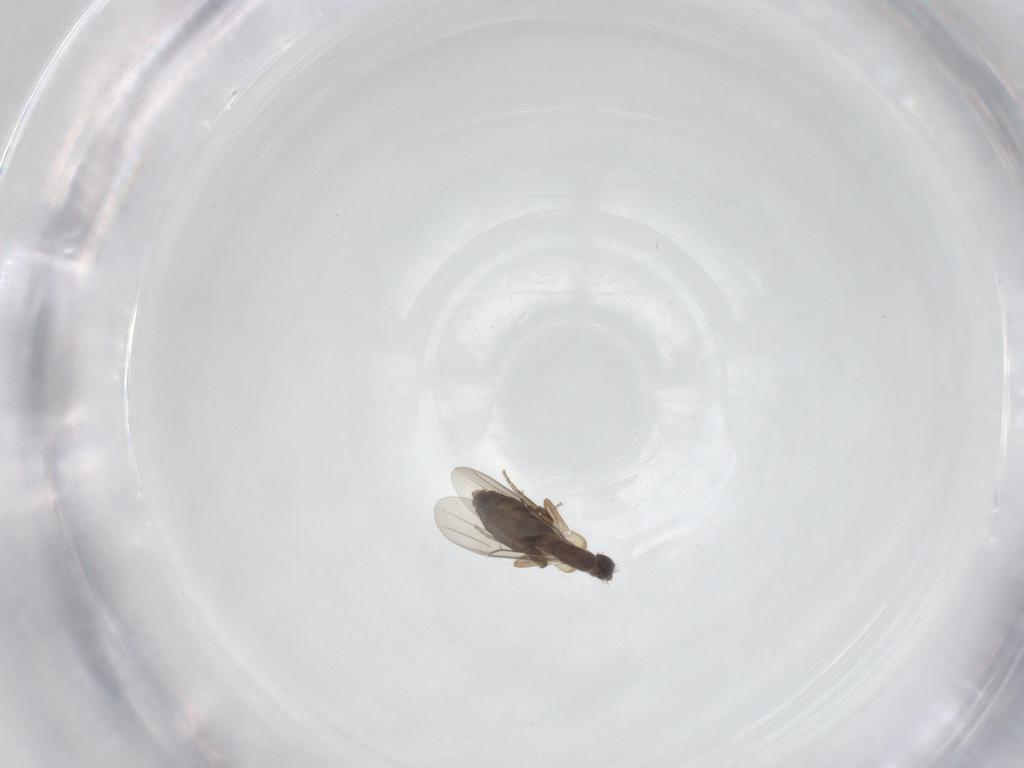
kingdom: Animalia
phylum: Arthropoda
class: Insecta
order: Diptera
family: Phoridae
